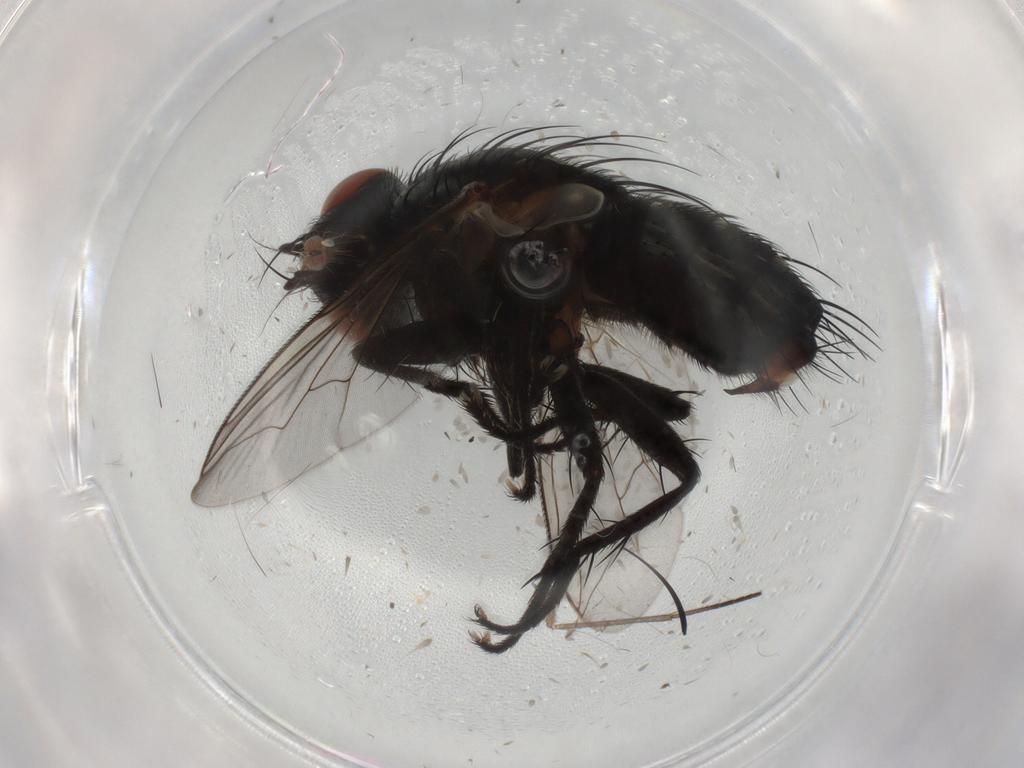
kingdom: Animalia
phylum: Arthropoda
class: Insecta
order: Diptera
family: Sarcophagidae
